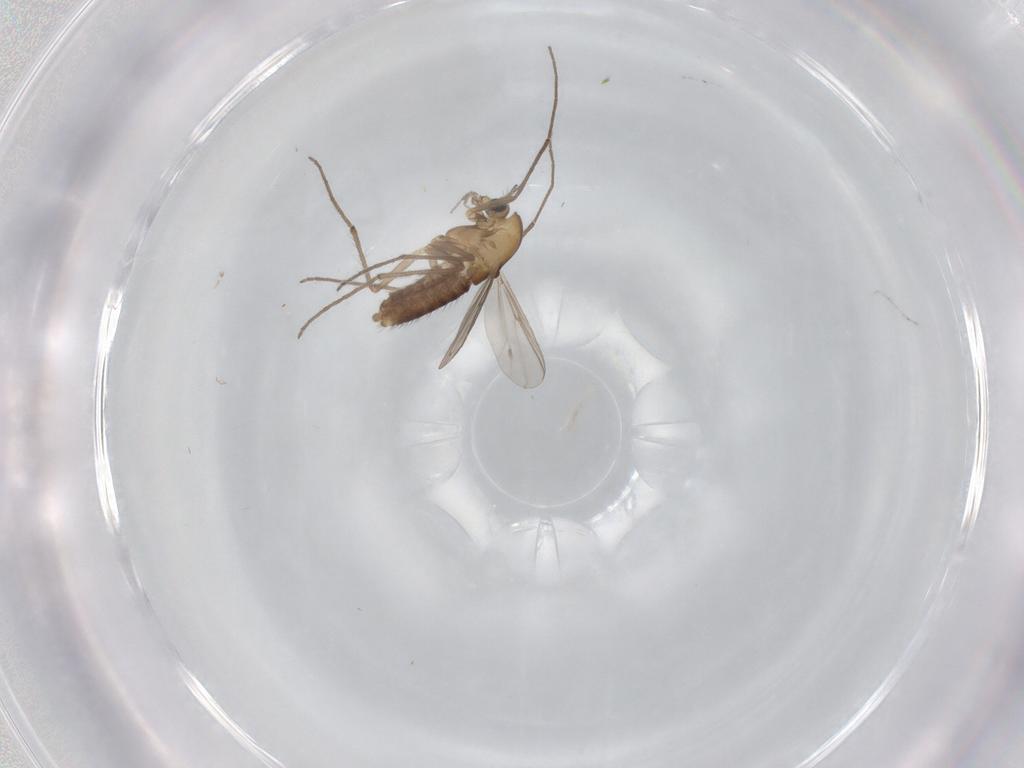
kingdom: Animalia
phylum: Arthropoda
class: Insecta
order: Diptera
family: Chironomidae
